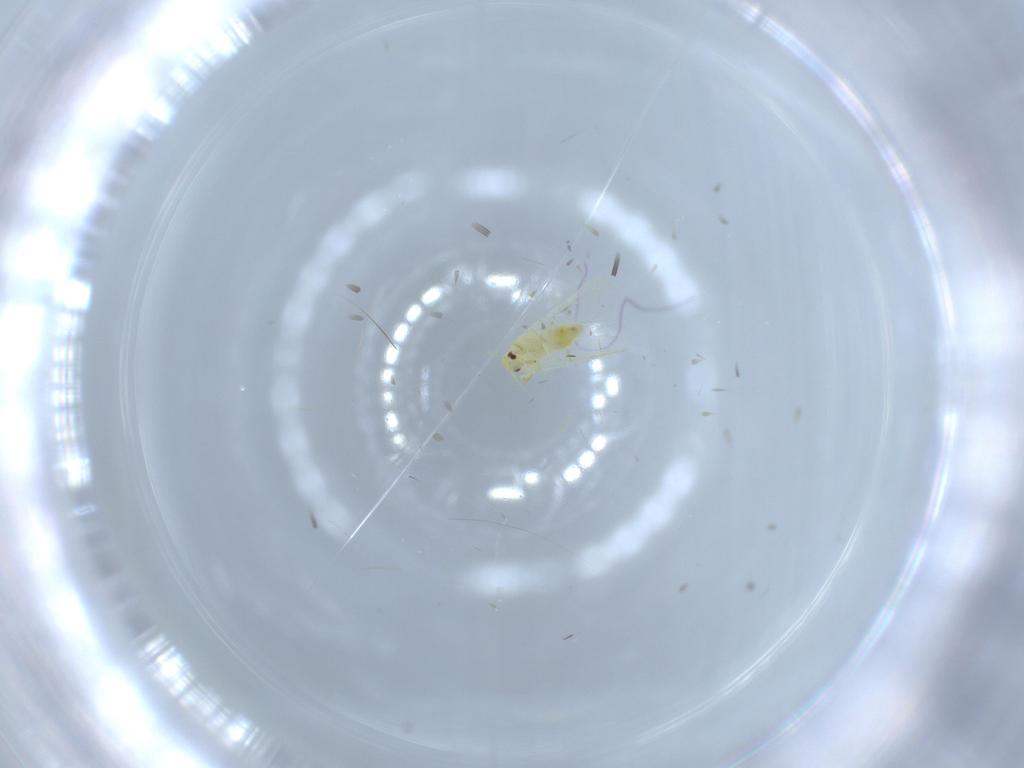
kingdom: Animalia
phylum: Arthropoda
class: Insecta
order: Hemiptera
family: Aleyrodidae
